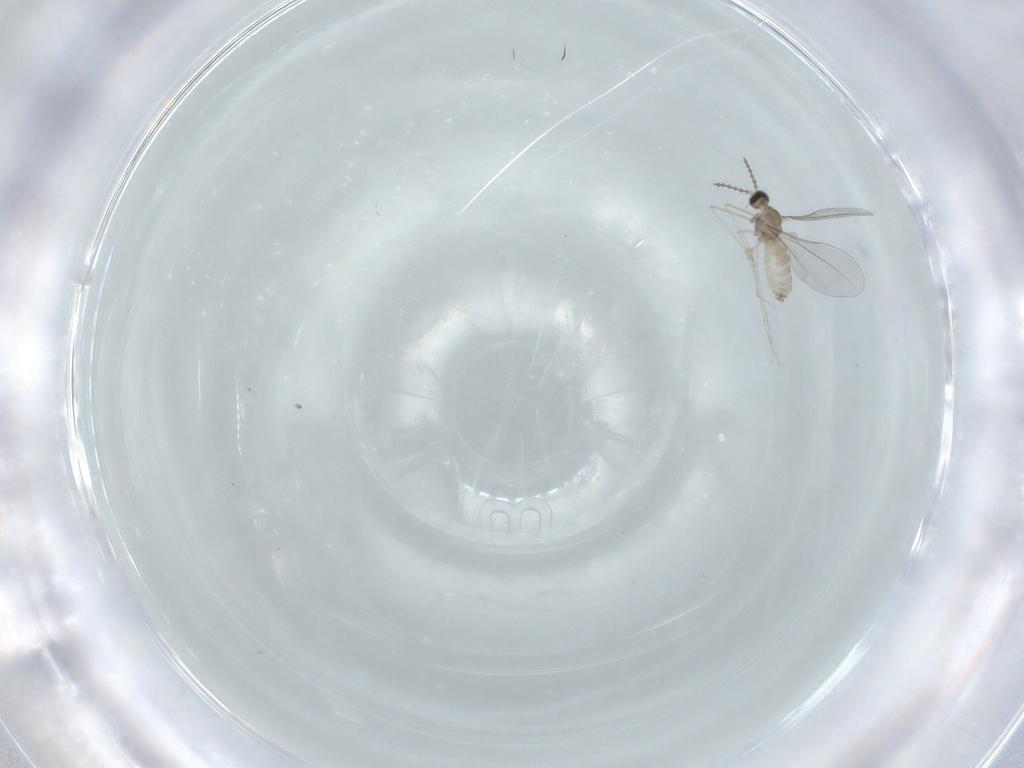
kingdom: Animalia
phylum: Arthropoda
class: Insecta
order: Diptera
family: Cecidomyiidae
